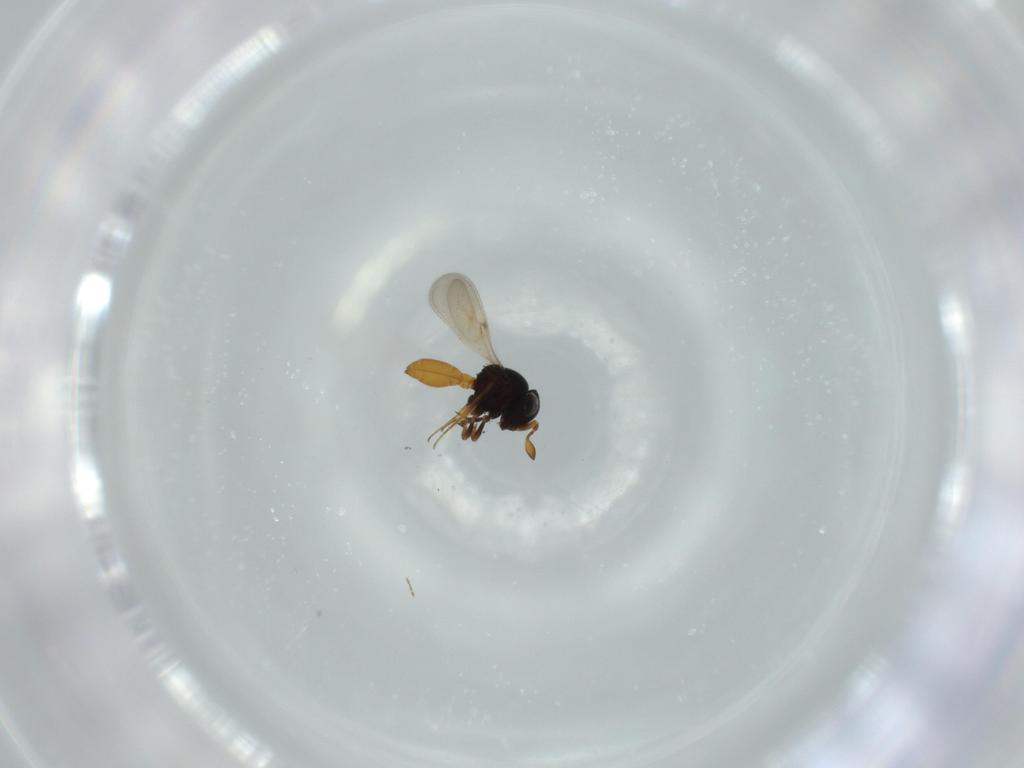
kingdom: Animalia
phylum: Arthropoda
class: Insecta
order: Hymenoptera
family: Scelionidae
